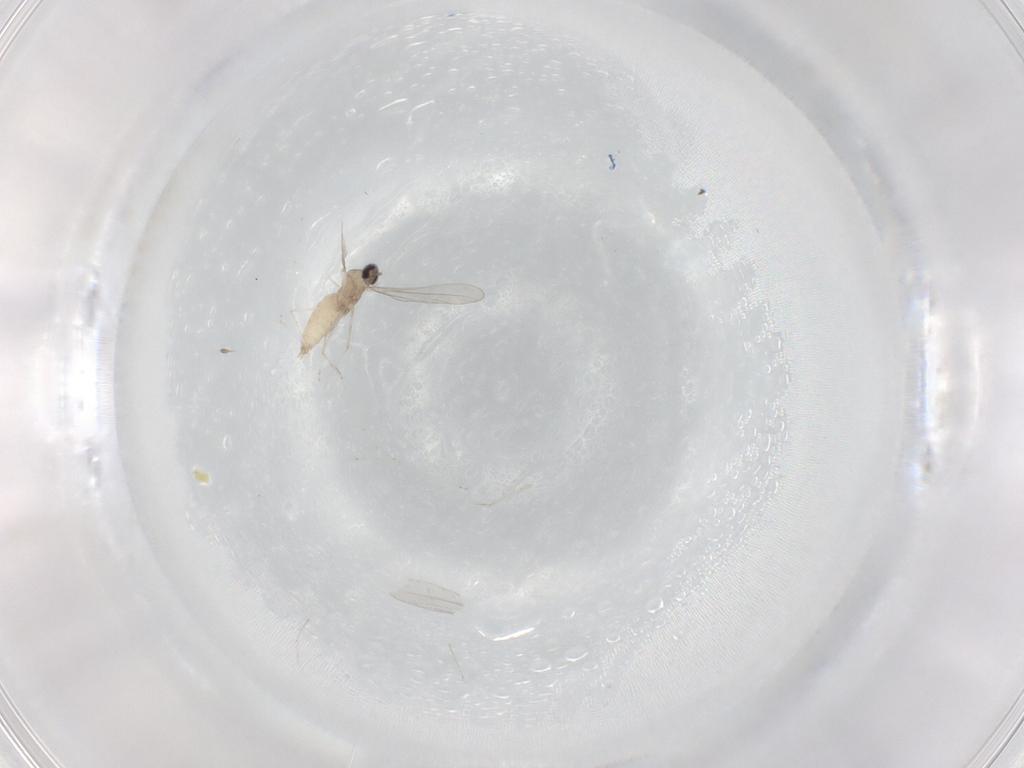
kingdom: Animalia
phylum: Arthropoda
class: Insecta
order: Diptera
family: Cecidomyiidae
